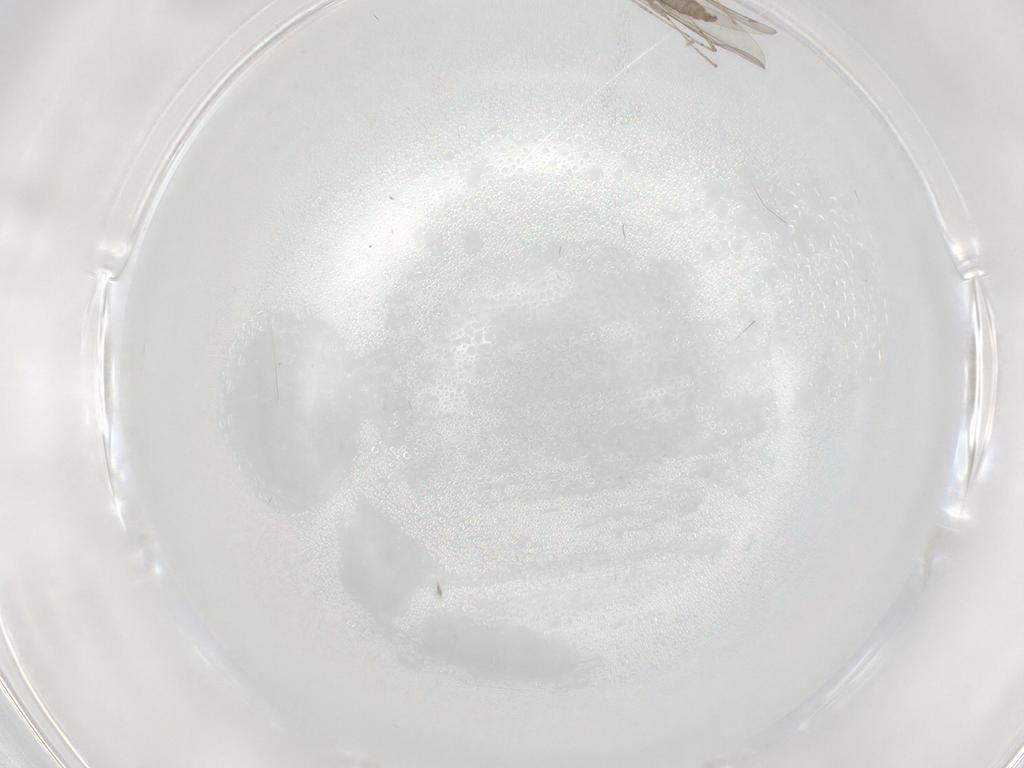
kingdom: Animalia
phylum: Arthropoda
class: Insecta
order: Diptera
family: Cecidomyiidae
